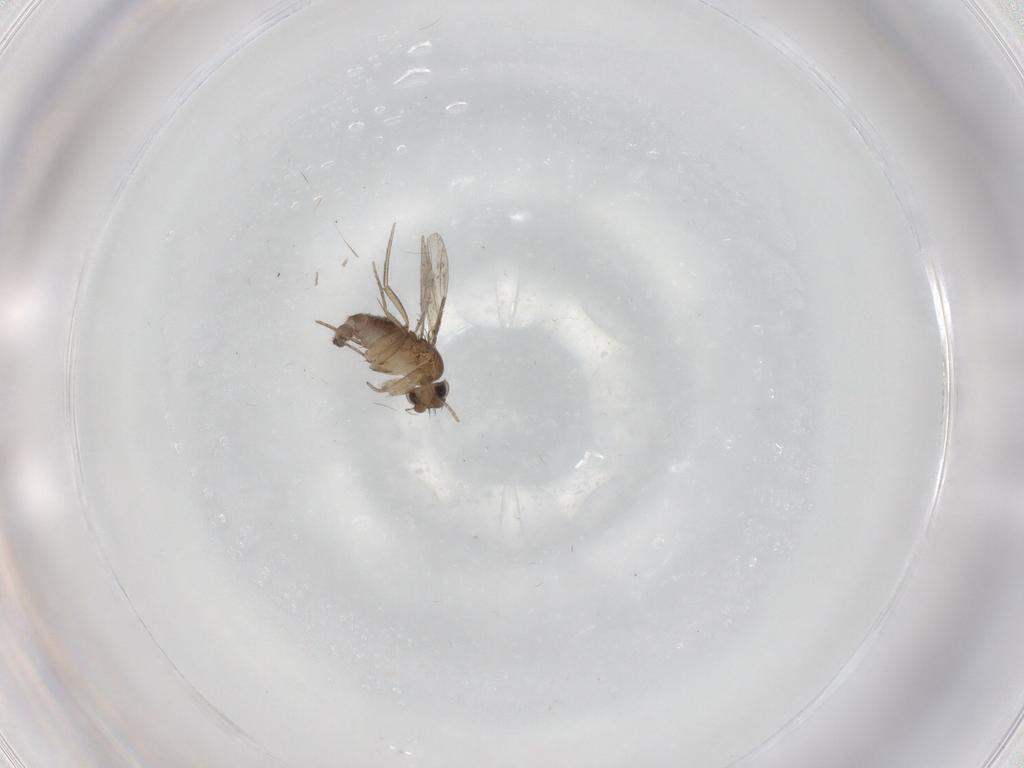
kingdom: Animalia
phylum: Arthropoda
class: Insecta
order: Diptera
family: Phoridae
